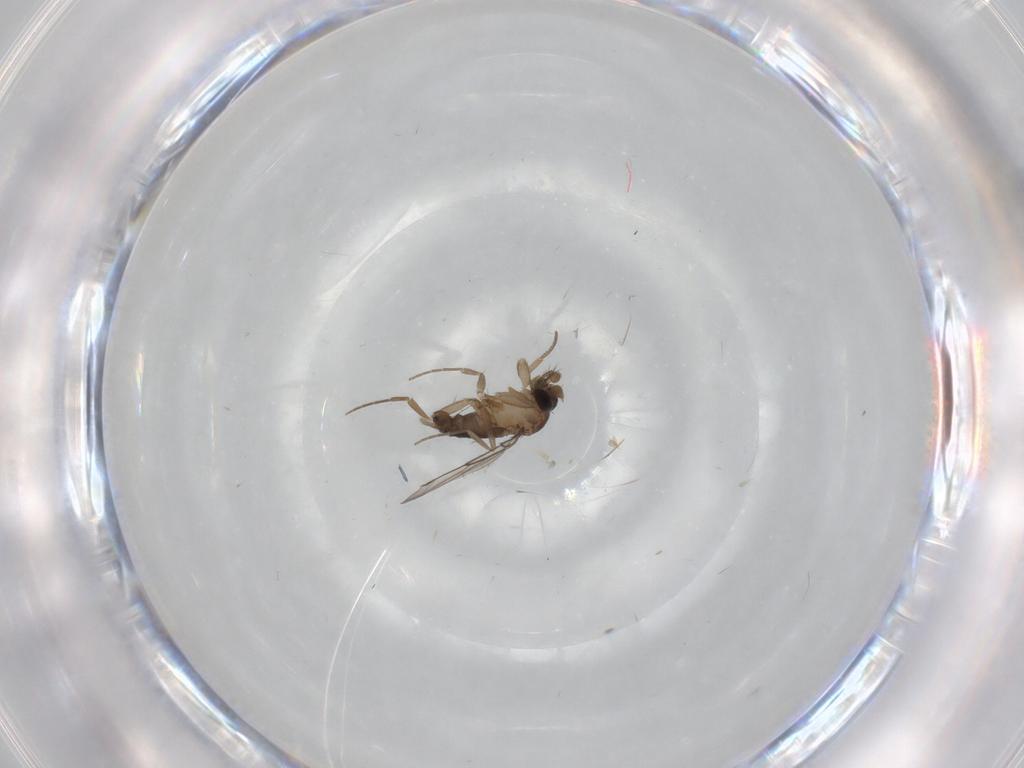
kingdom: Animalia
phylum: Arthropoda
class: Insecta
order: Diptera
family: Phoridae
